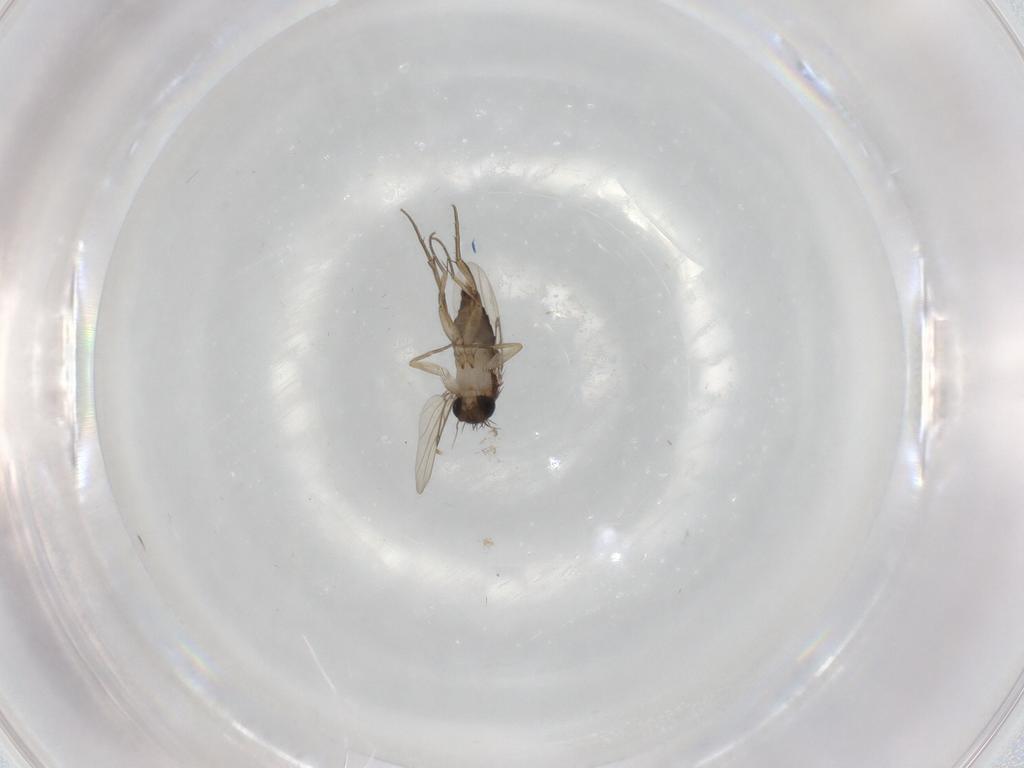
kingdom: Animalia
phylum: Arthropoda
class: Insecta
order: Diptera
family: Phoridae
